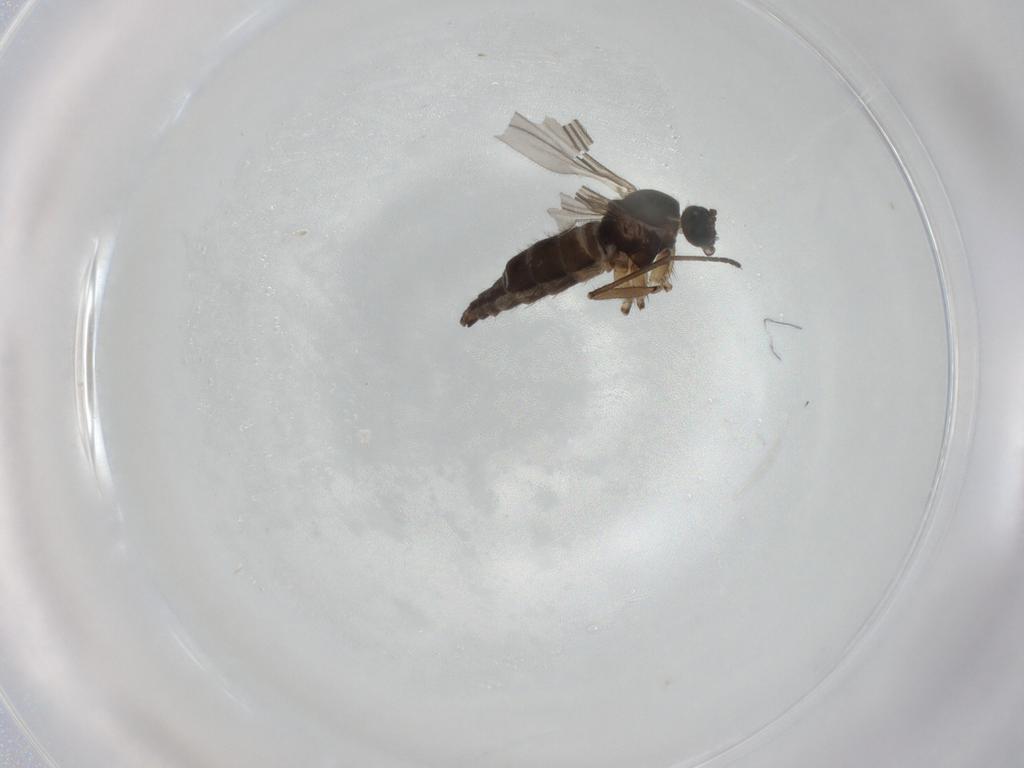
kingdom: Animalia
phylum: Arthropoda
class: Insecta
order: Diptera
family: Sciaridae
